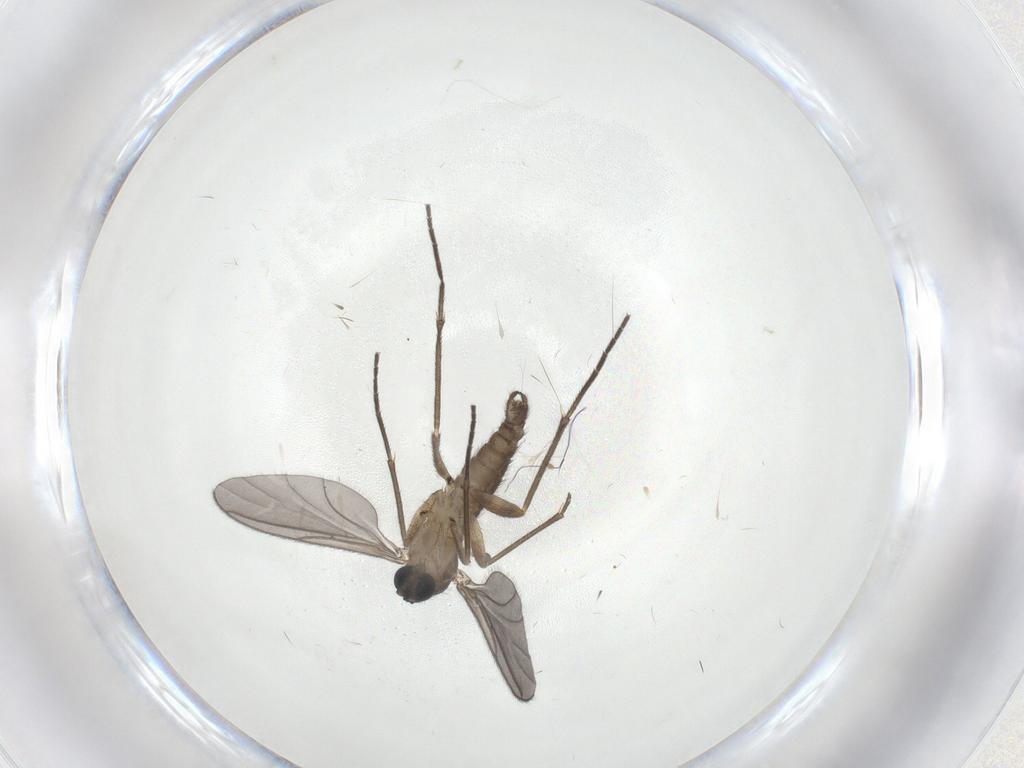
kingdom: Animalia
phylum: Arthropoda
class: Insecta
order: Diptera
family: Sciaridae
